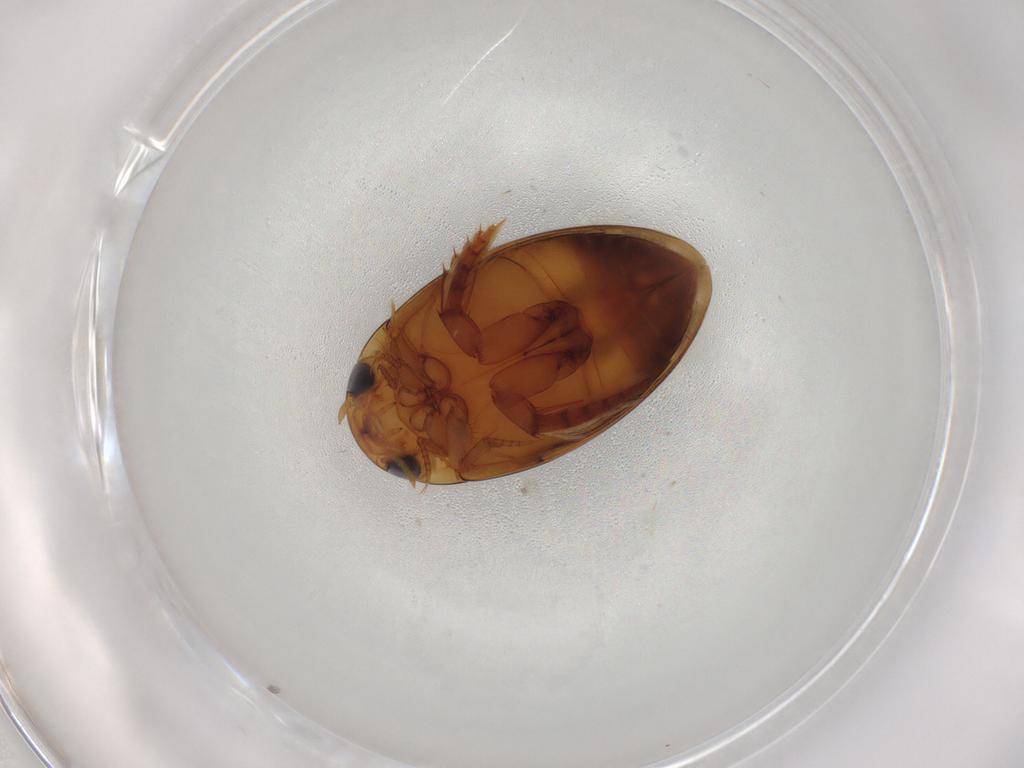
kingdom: Animalia
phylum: Arthropoda
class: Insecta
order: Coleoptera
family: Dytiscidae
